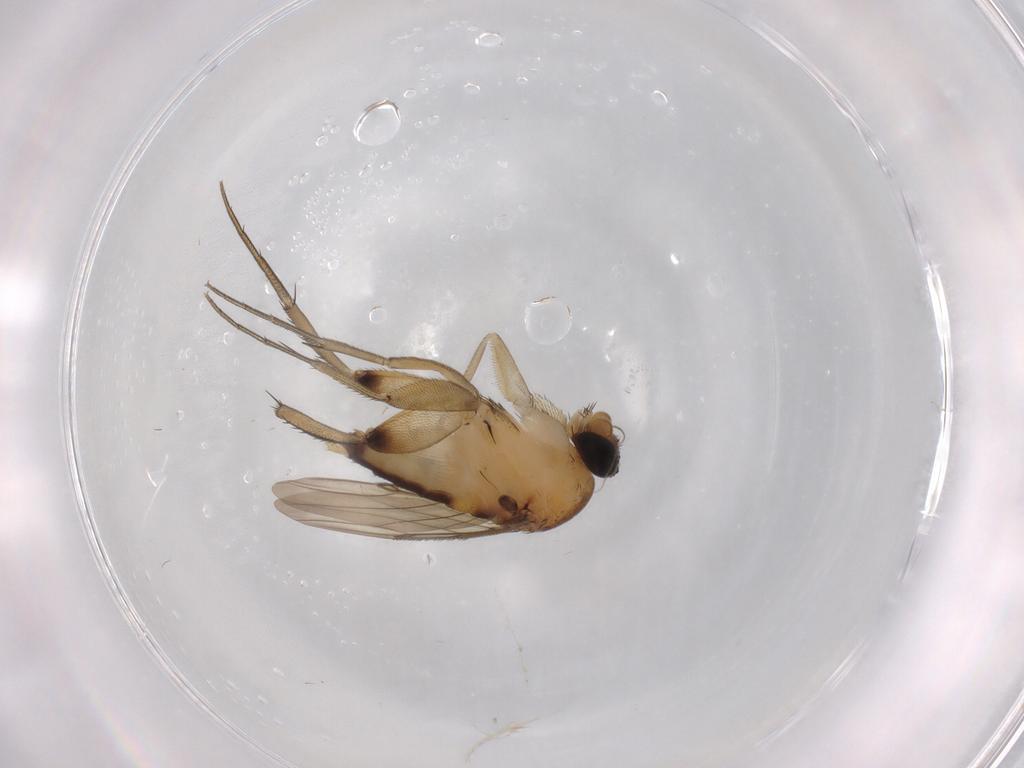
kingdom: Animalia
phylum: Arthropoda
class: Insecta
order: Diptera
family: Phoridae
